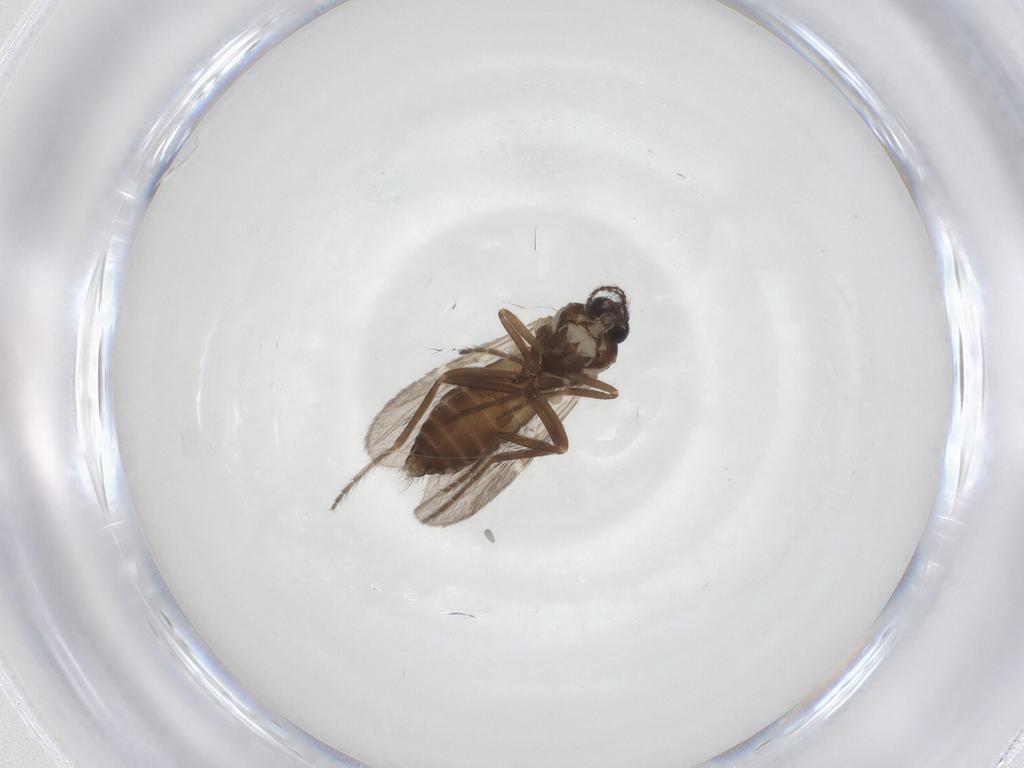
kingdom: Animalia
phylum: Arthropoda
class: Insecta
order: Diptera
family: Ceratopogonidae
